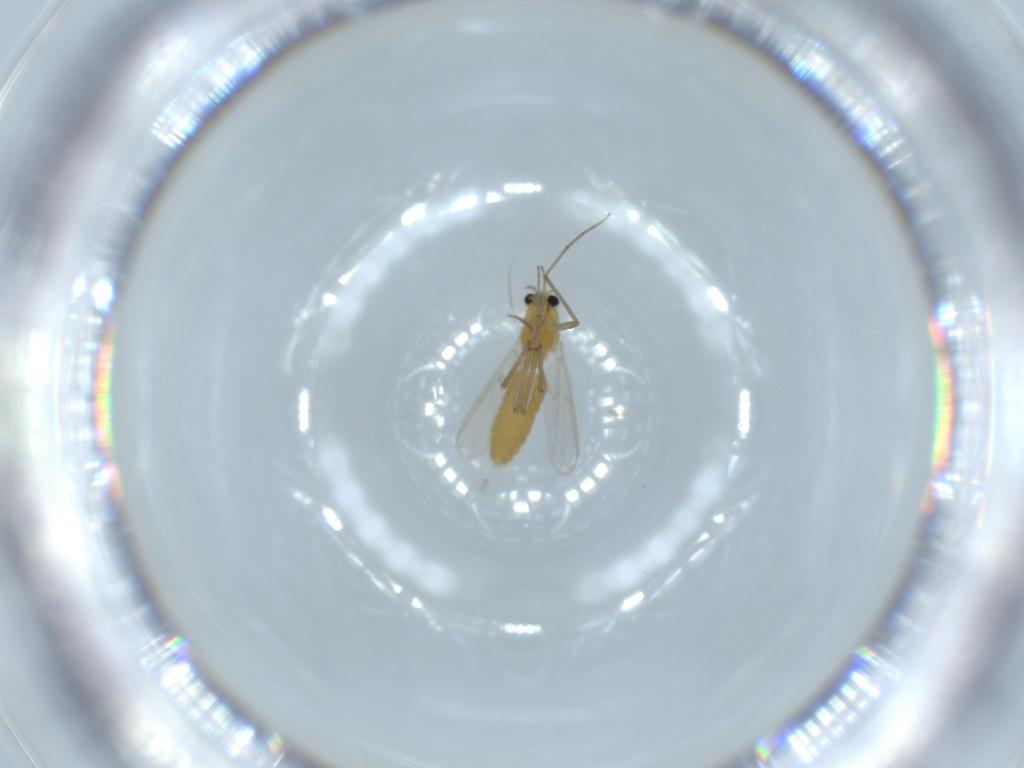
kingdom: Animalia
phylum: Arthropoda
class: Insecta
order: Diptera
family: Chironomidae
